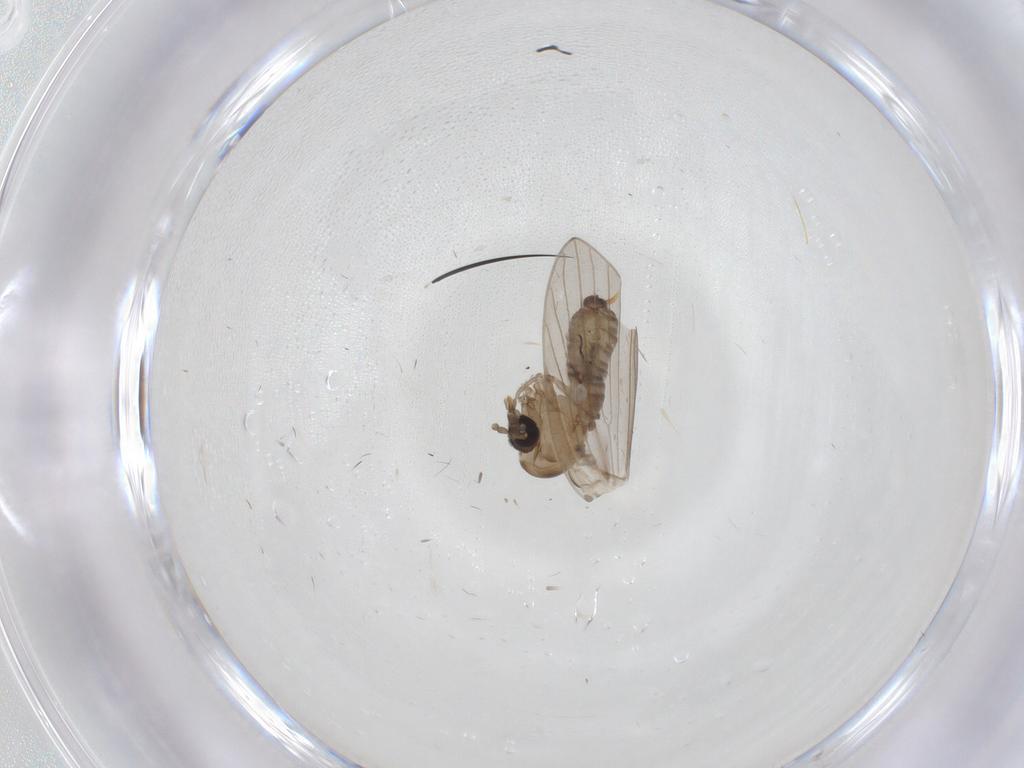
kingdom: Animalia
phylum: Arthropoda
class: Insecta
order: Diptera
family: Psychodidae
